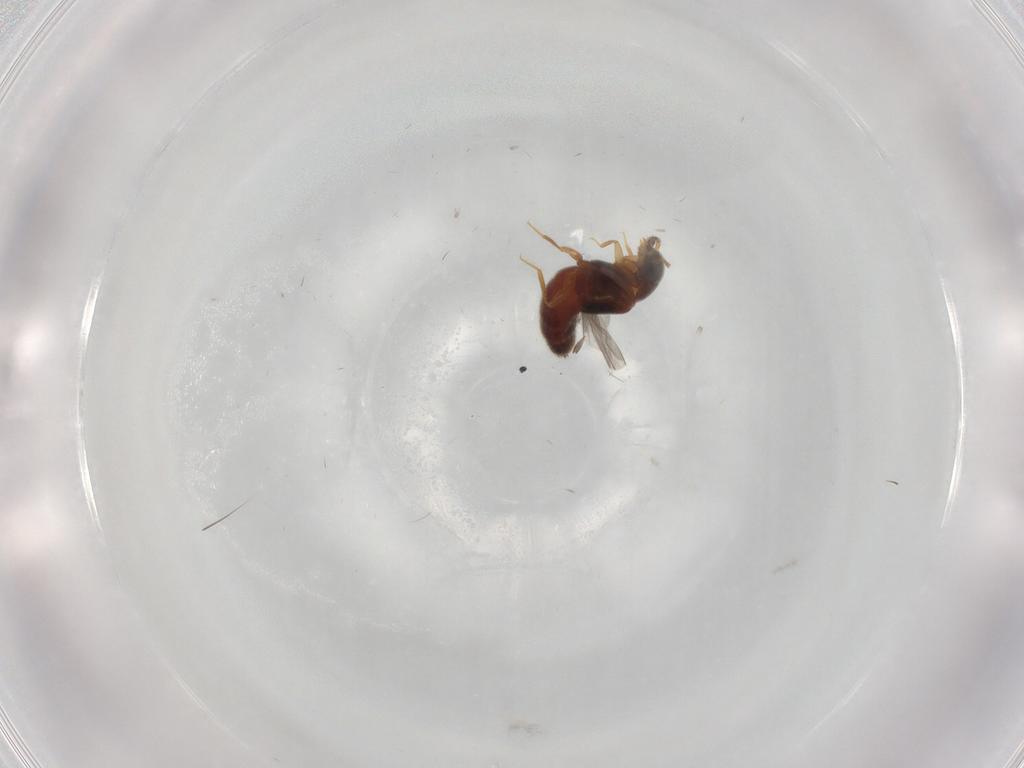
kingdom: Animalia
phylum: Arthropoda
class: Insecta
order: Coleoptera
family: Staphylinidae
